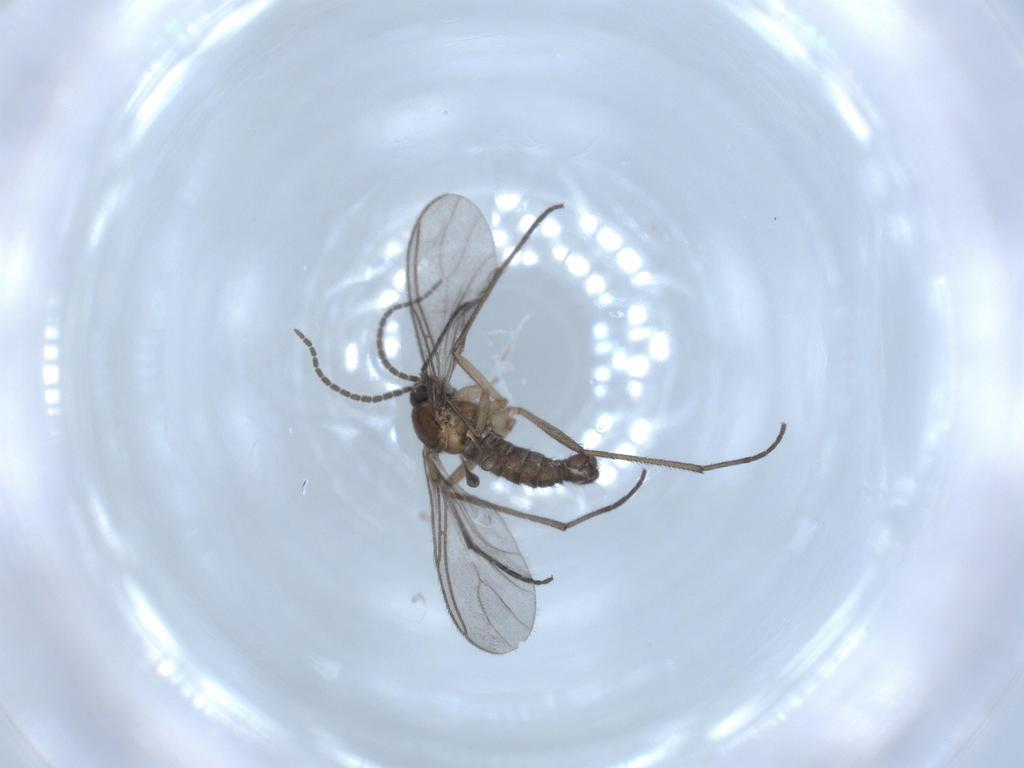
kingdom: Animalia
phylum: Arthropoda
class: Insecta
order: Diptera
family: Sciaridae
